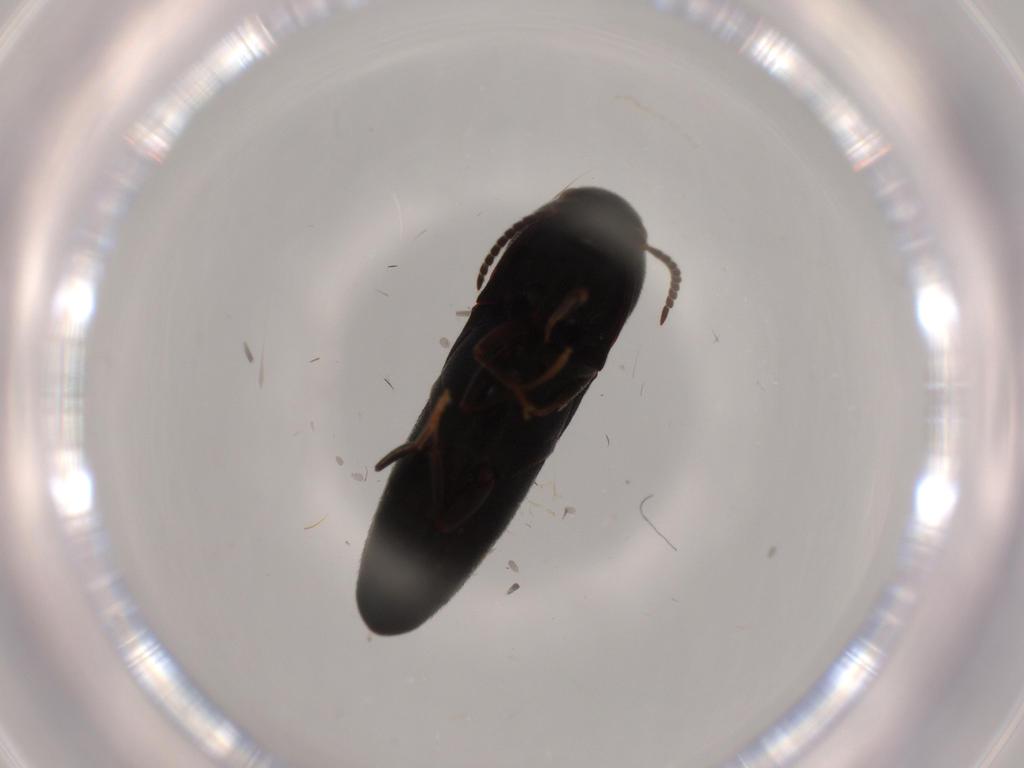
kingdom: Animalia
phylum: Arthropoda
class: Insecta
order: Coleoptera
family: Eucnemidae
